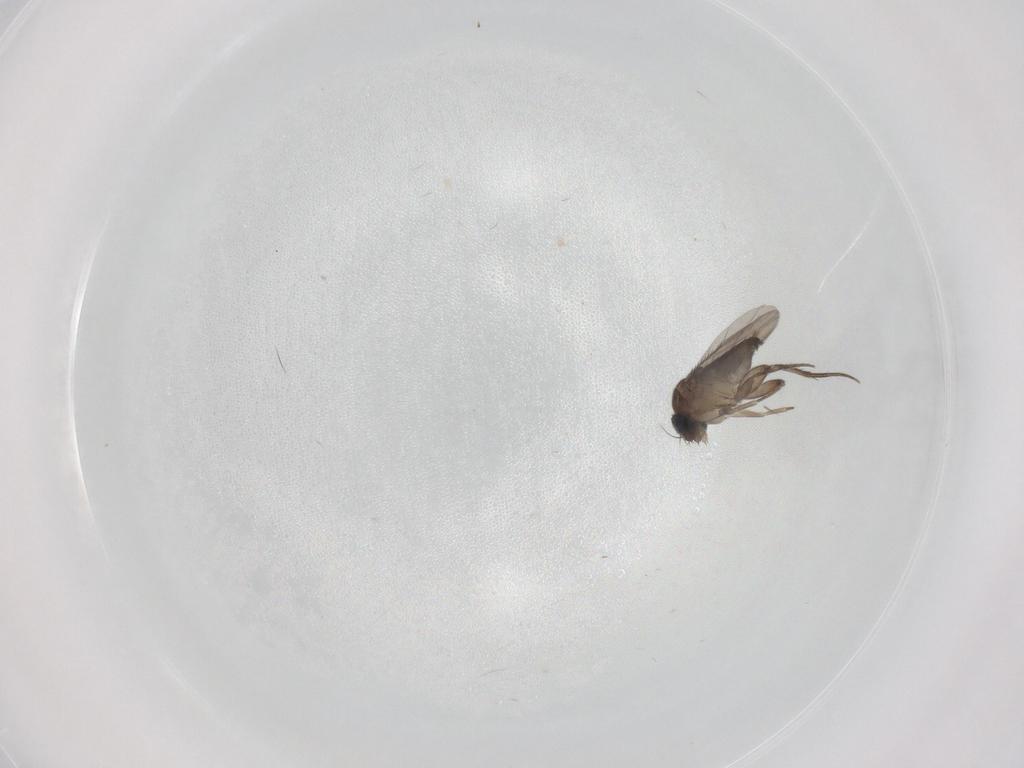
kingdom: Animalia
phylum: Arthropoda
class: Insecta
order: Diptera
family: Phoridae
